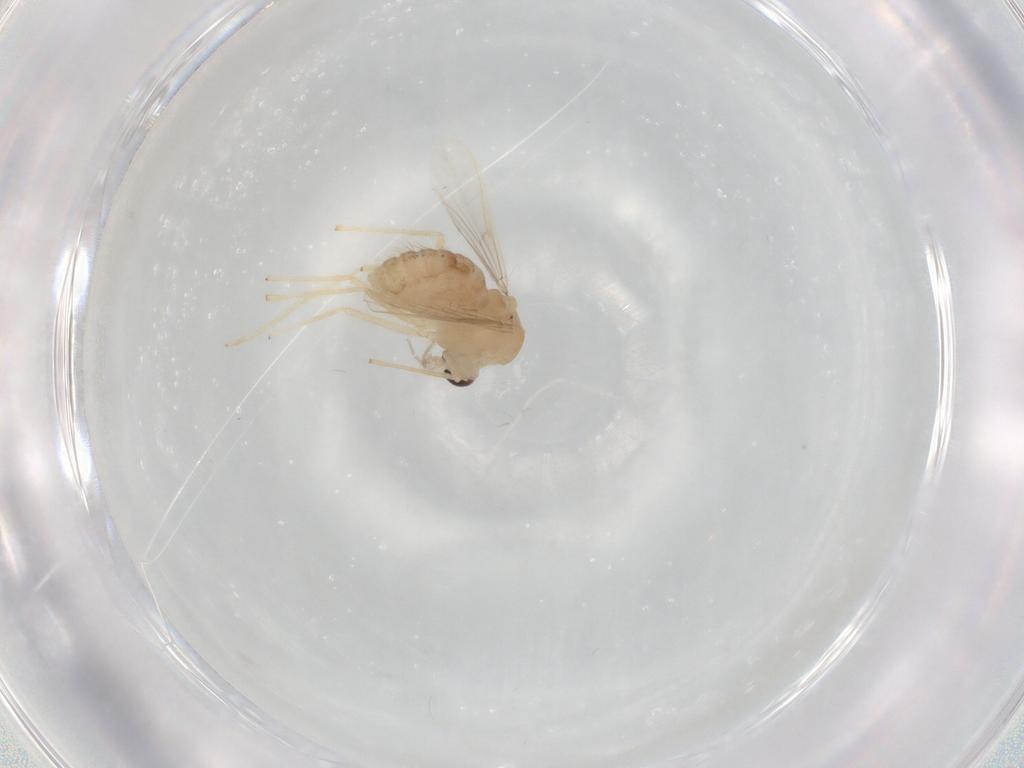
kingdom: Animalia
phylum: Arthropoda
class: Insecta
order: Diptera
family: Chironomidae
